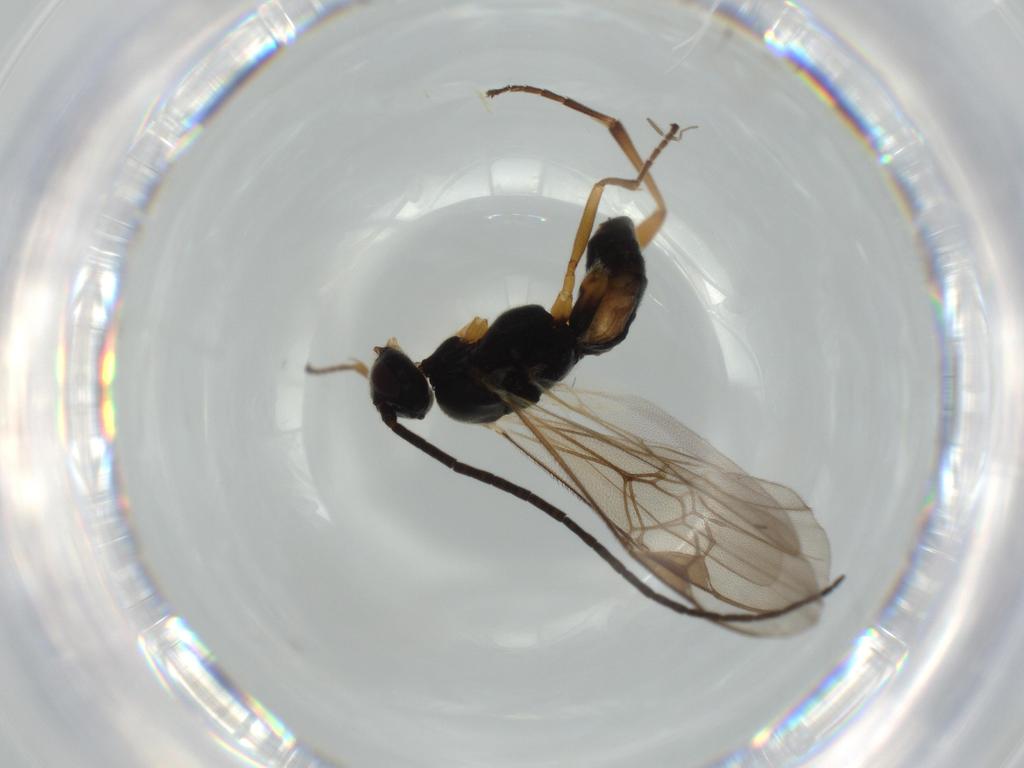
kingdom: Animalia
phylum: Arthropoda
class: Insecta
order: Hymenoptera
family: Braconidae
